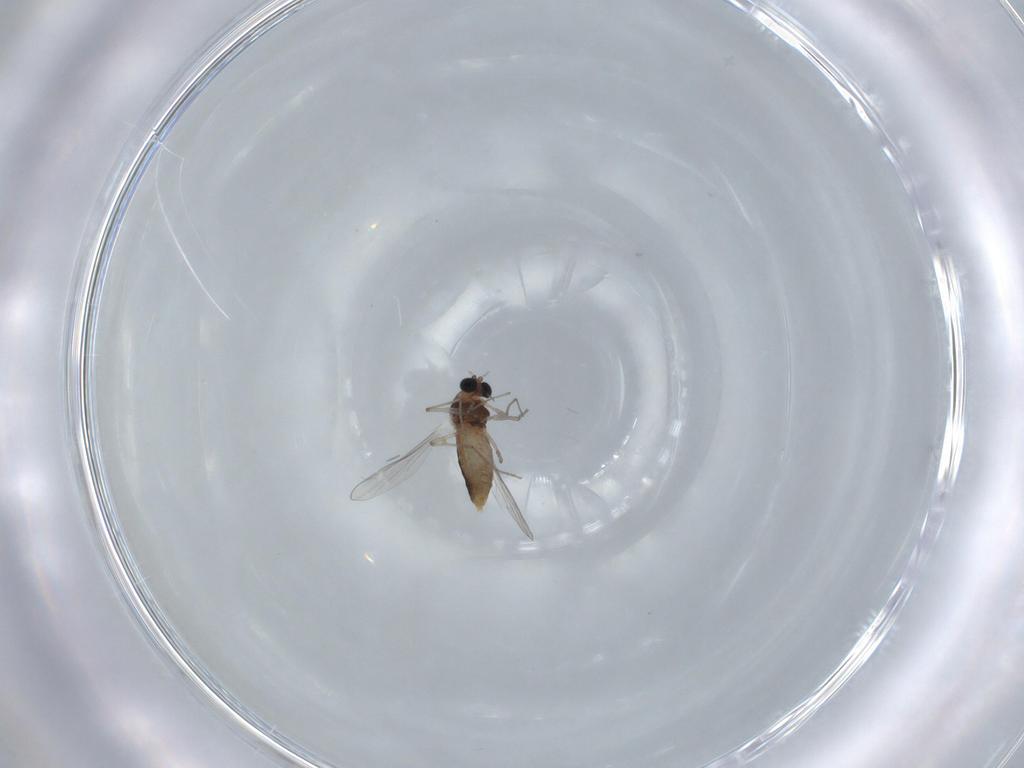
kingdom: Animalia
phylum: Arthropoda
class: Insecta
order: Diptera
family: Chironomidae
